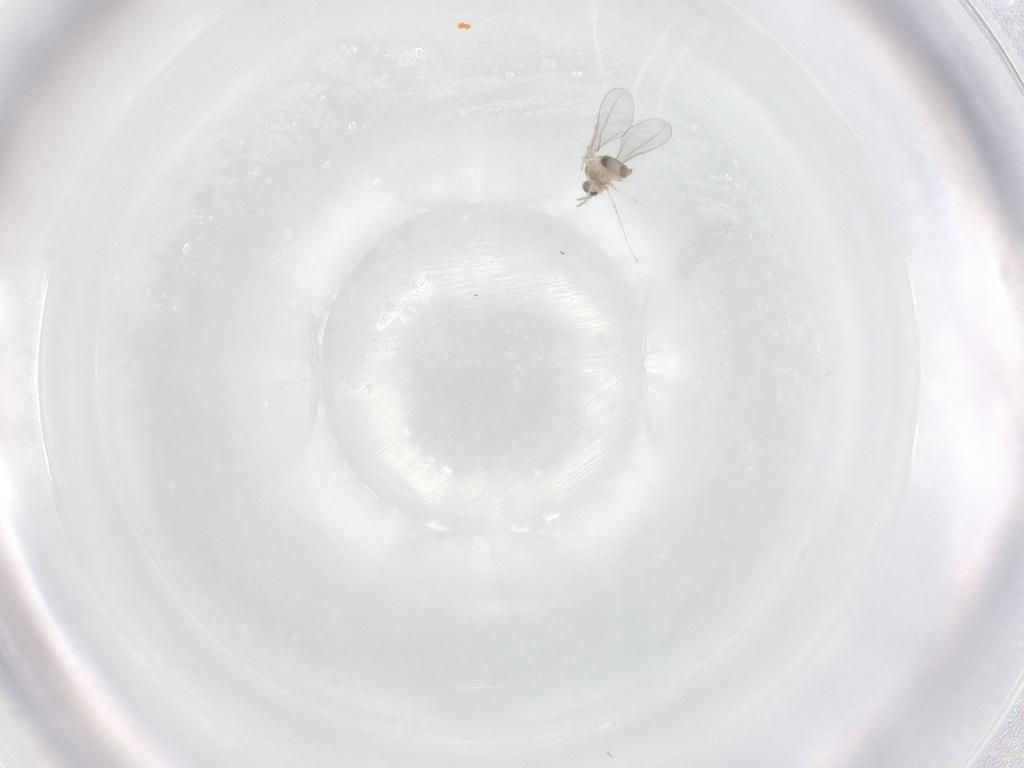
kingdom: Animalia
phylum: Arthropoda
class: Insecta
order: Diptera
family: Cecidomyiidae
